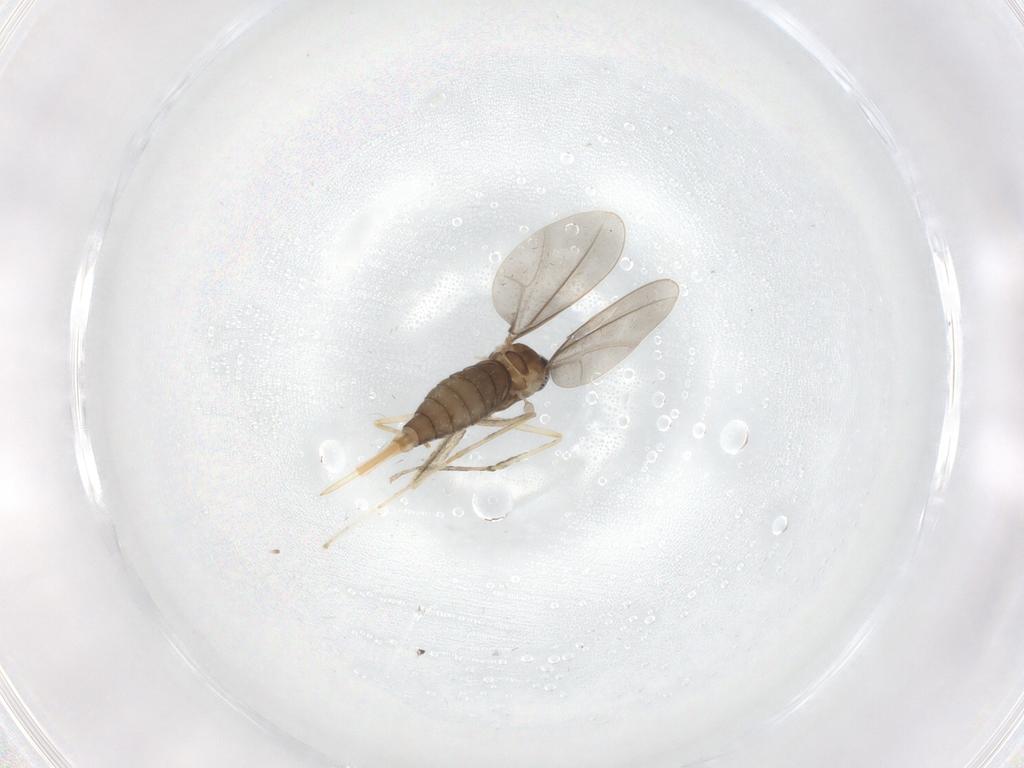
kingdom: Animalia
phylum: Arthropoda
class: Insecta
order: Diptera
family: Cecidomyiidae
